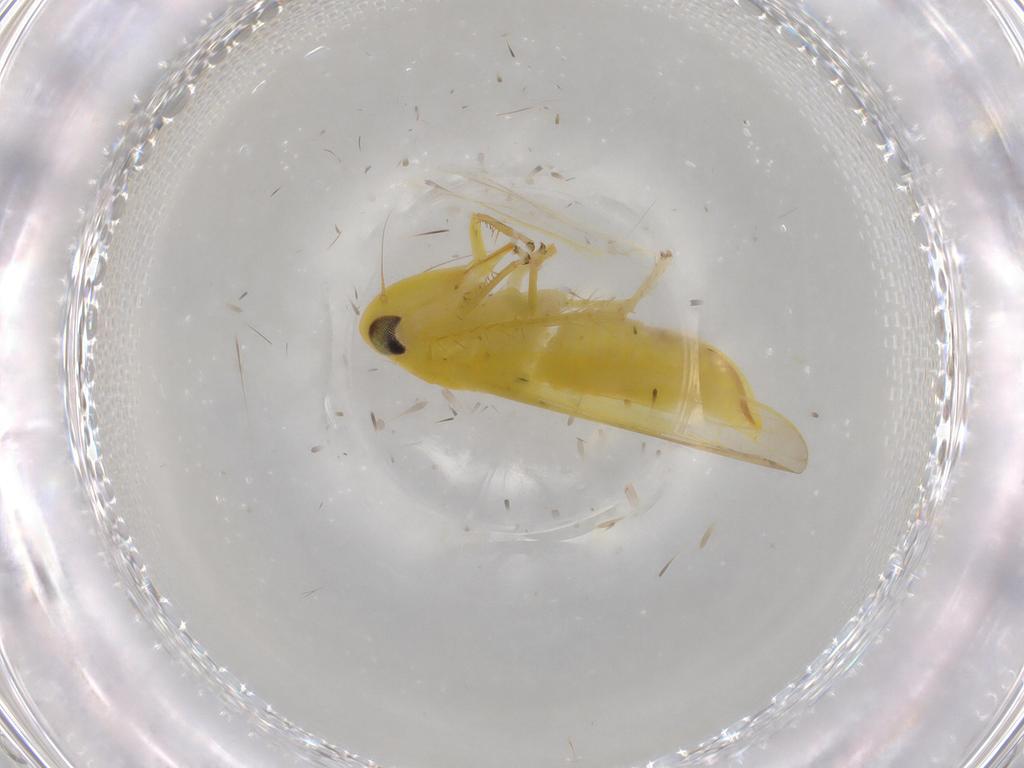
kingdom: Animalia
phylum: Arthropoda
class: Insecta
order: Hemiptera
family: Cicadellidae
